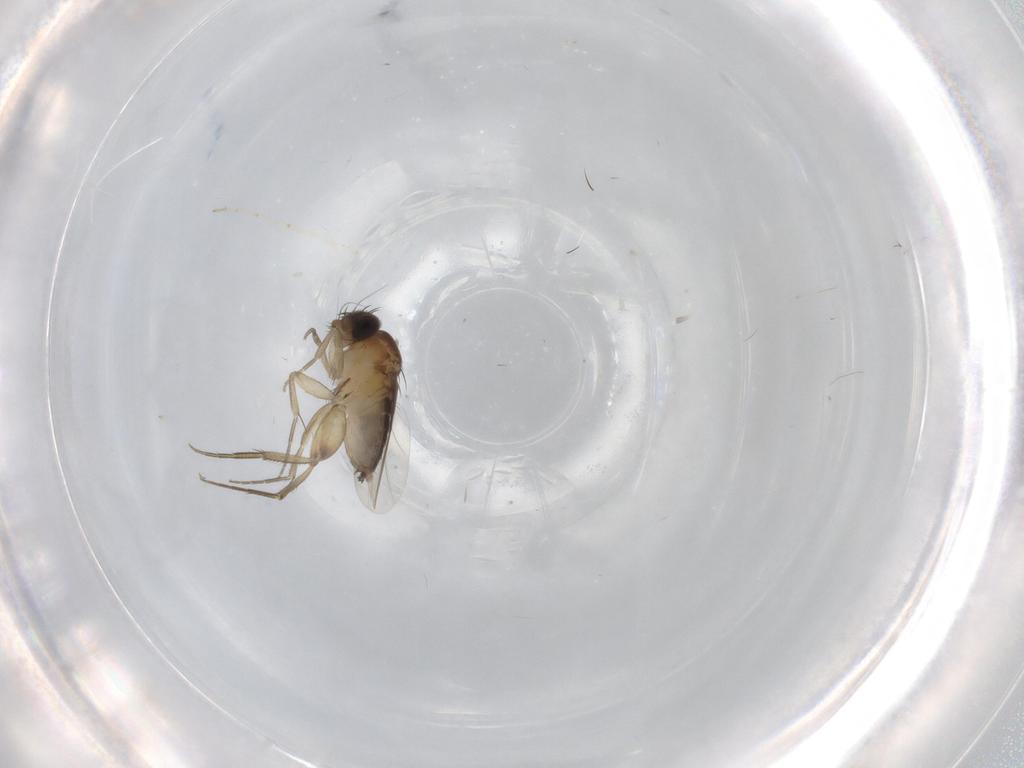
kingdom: Animalia
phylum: Arthropoda
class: Insecta
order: Diptera
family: Phoridae
